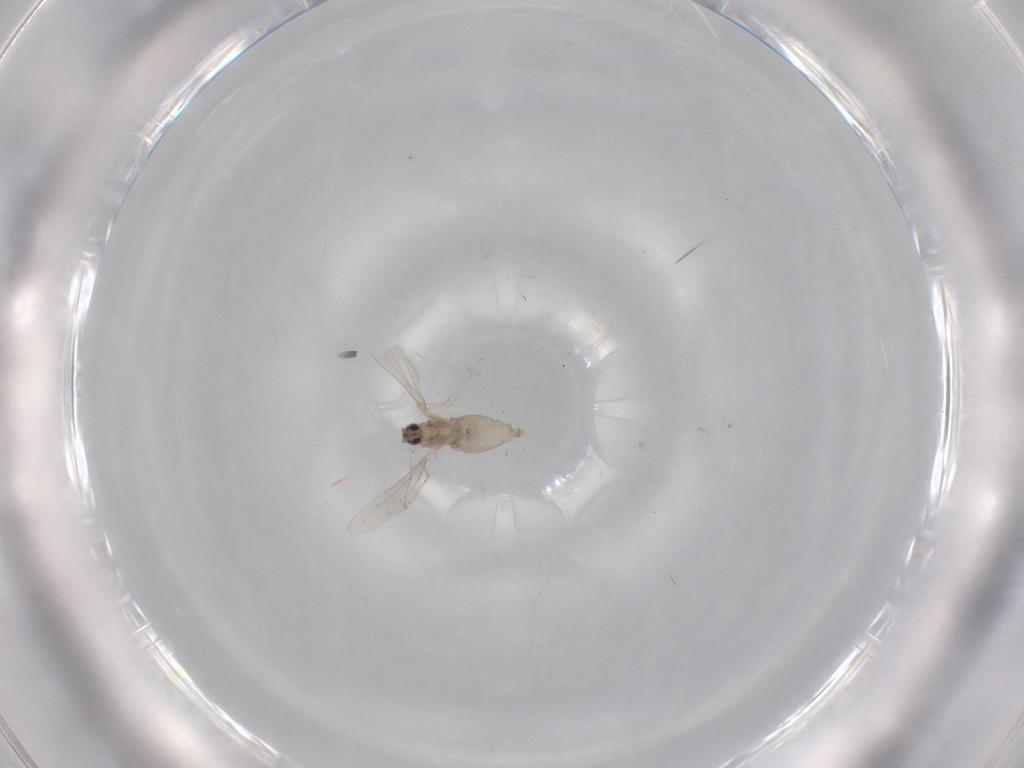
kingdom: Animalia
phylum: Arthropoda
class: Insecta
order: Diptera
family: Cecidomyiidae
